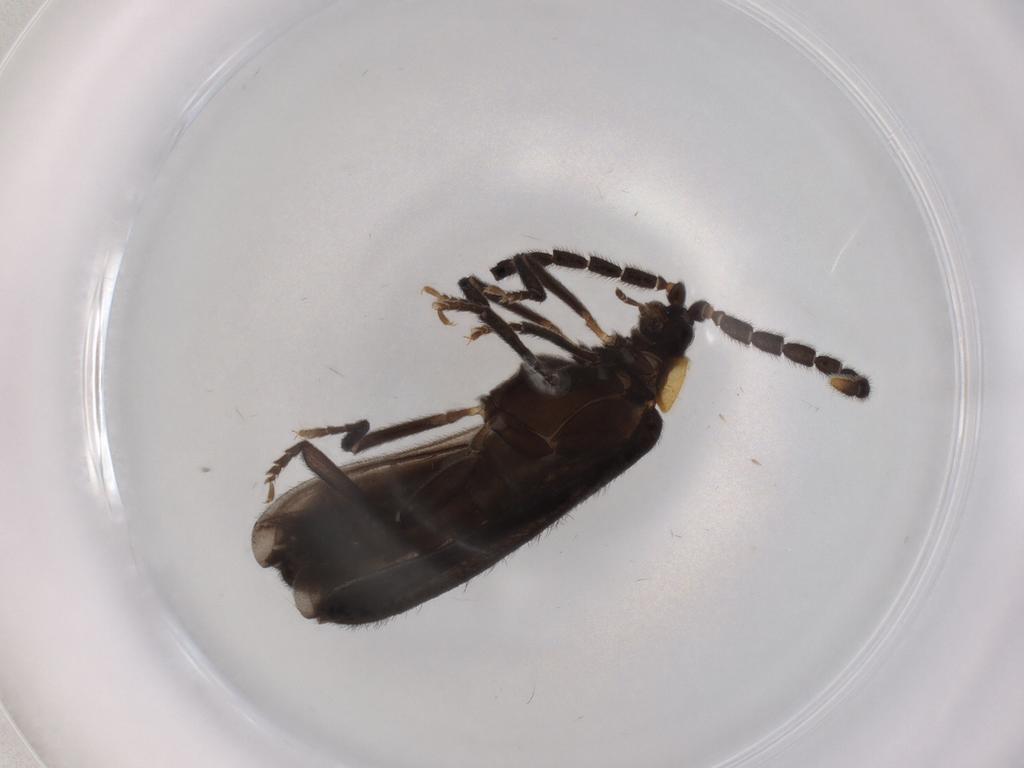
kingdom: Animalia
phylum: Arthropoda
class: Insecta
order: Coleoptera
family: Lycidae
